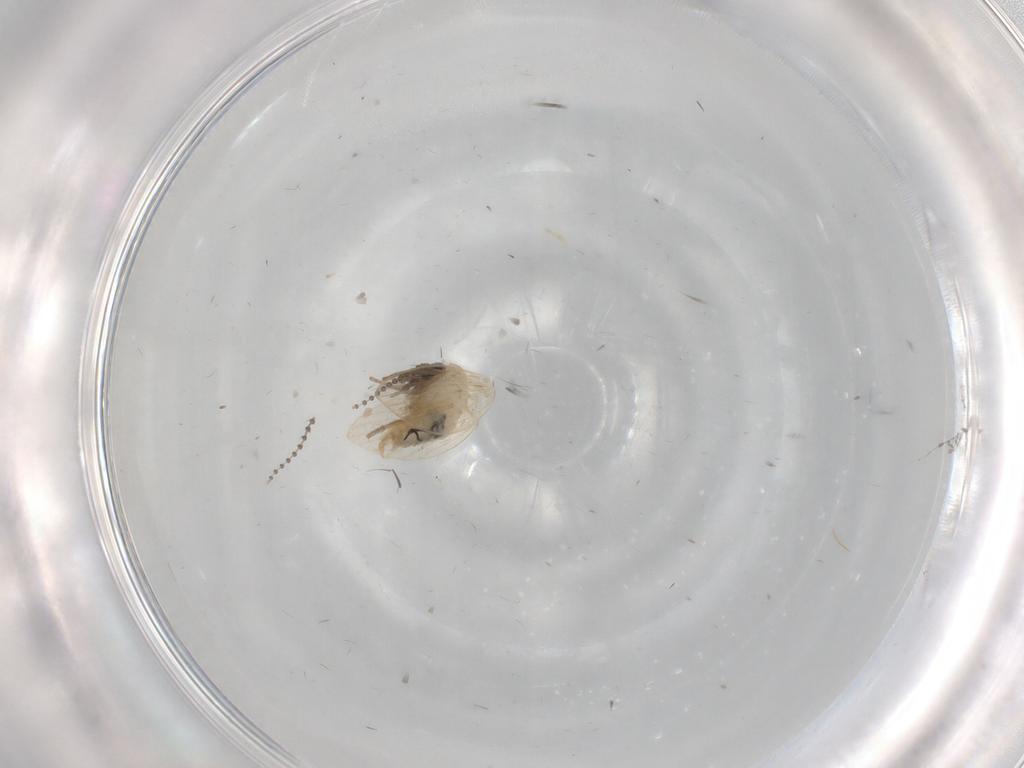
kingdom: Animalia
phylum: Arthropoda
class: Insecta
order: Diptera
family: Psychodidae
